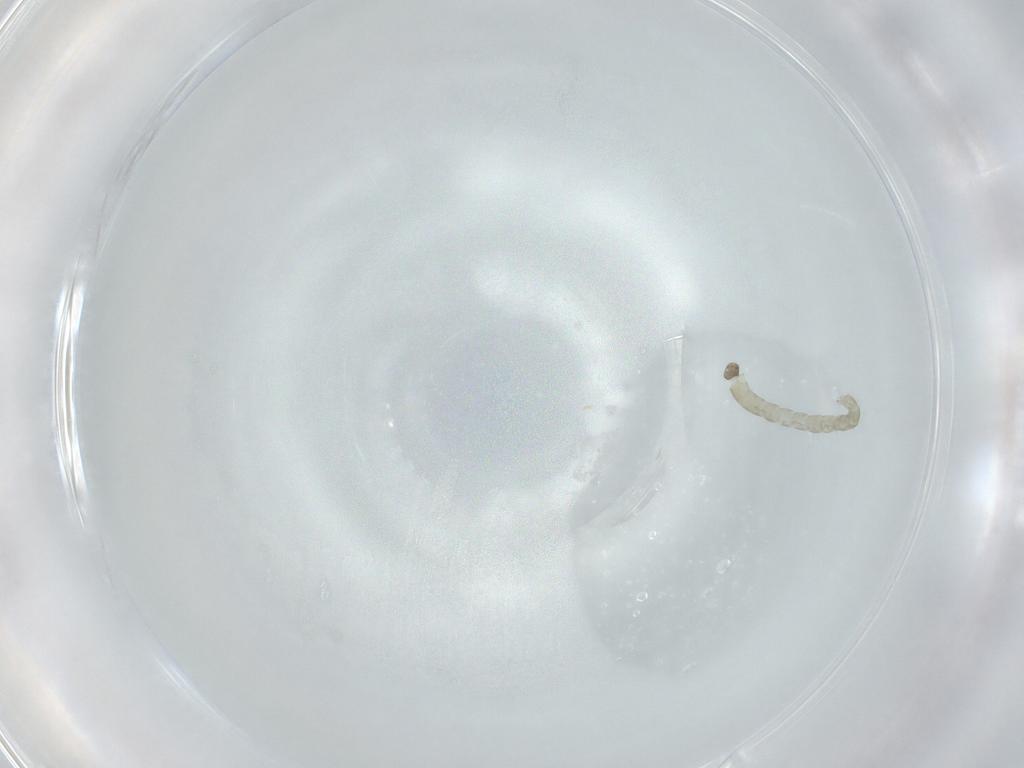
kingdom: Animalia
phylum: Arthropoda
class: Insecta
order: Diptera
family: Chironomidae
